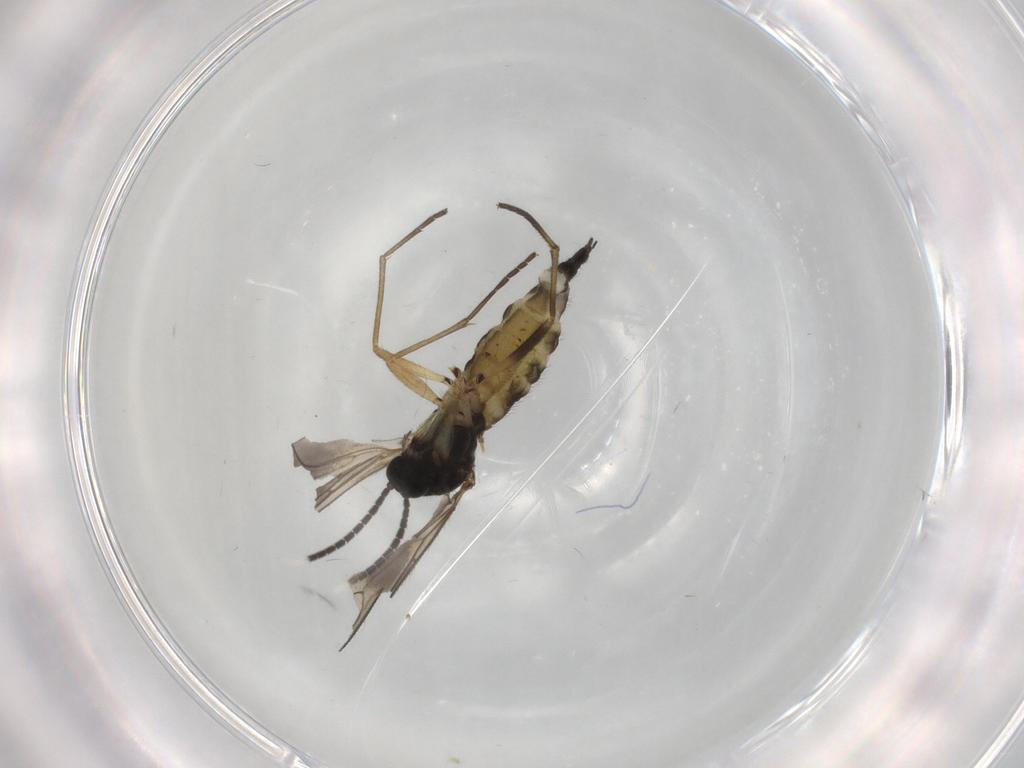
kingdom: Animalia
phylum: Arthropoda
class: Insecta
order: Diptera
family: Sciaridae
